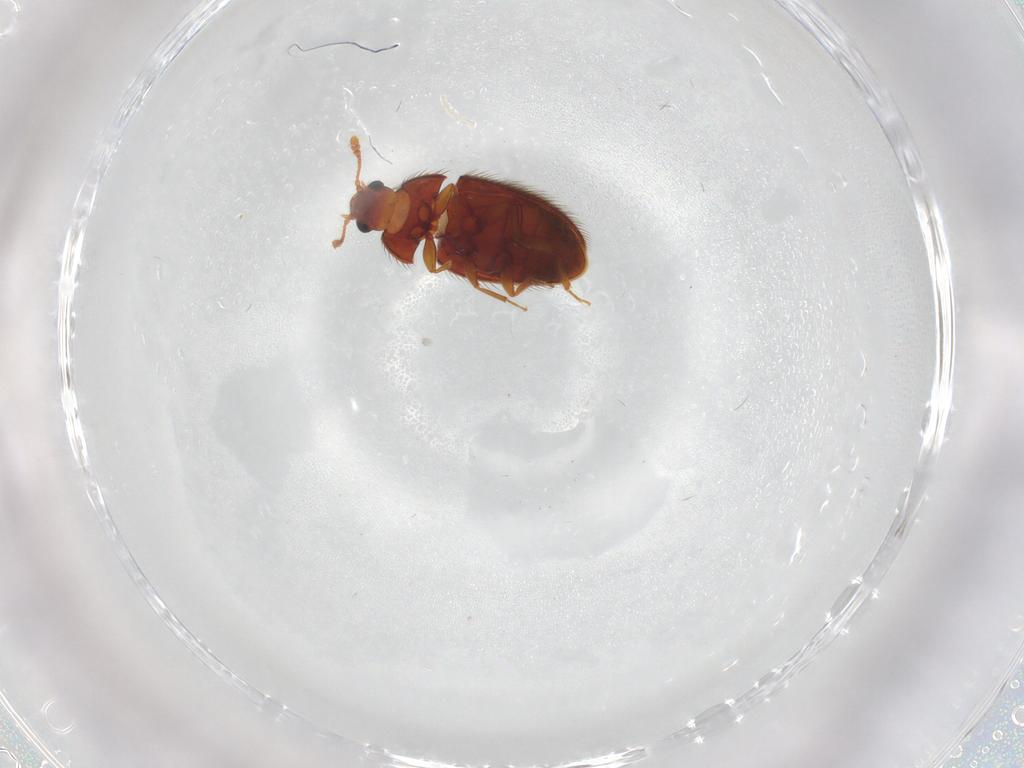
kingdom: Animalia
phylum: Arthropoda
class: Insecta
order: Coleoptera
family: Biphyllidae
